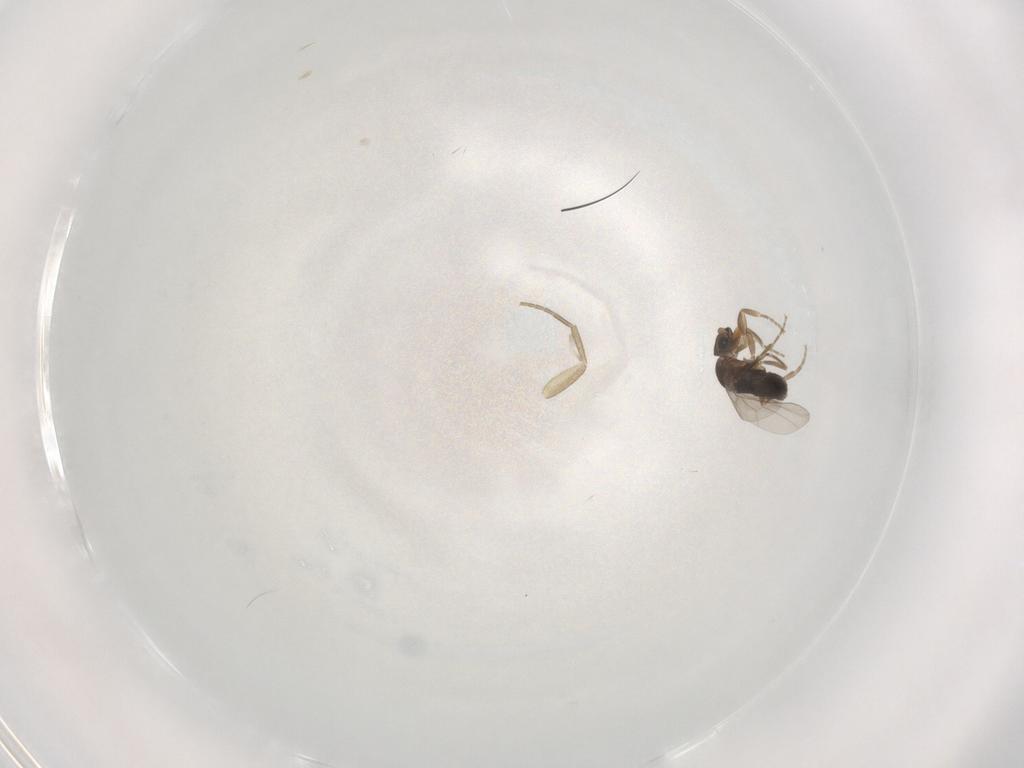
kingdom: Animalia
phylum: Arthropoda
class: Insecta
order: Diptera
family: Phoridae
